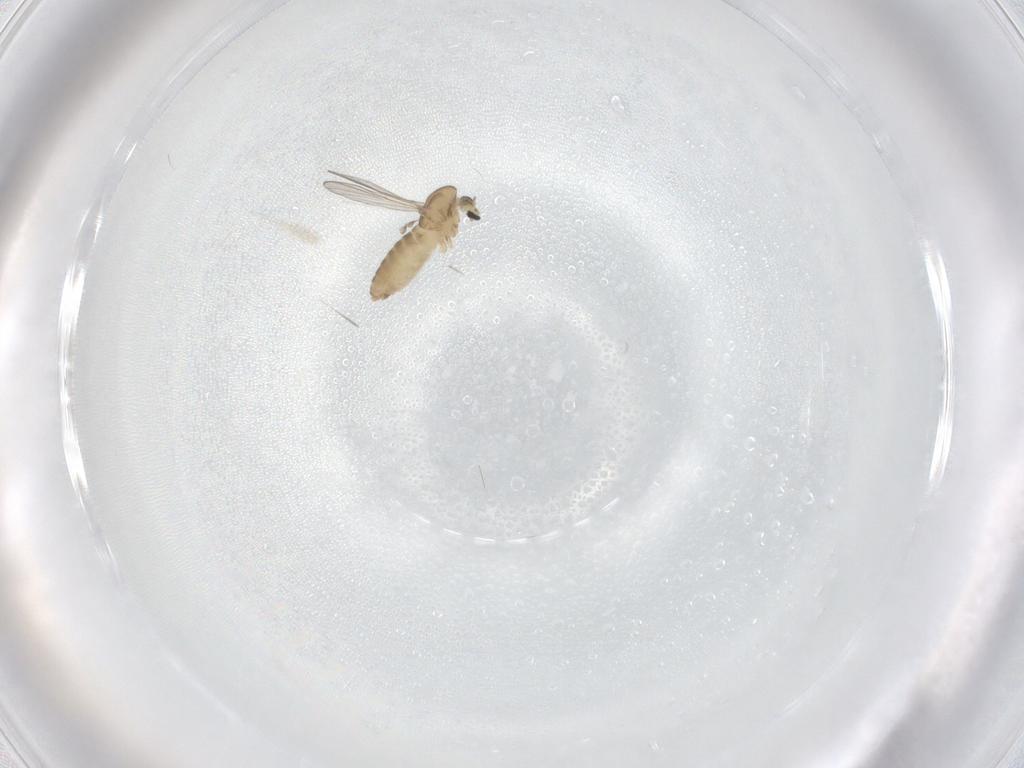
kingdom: Animalia
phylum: Arthropoda
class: Insecta
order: Diptera
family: Chironomidae
